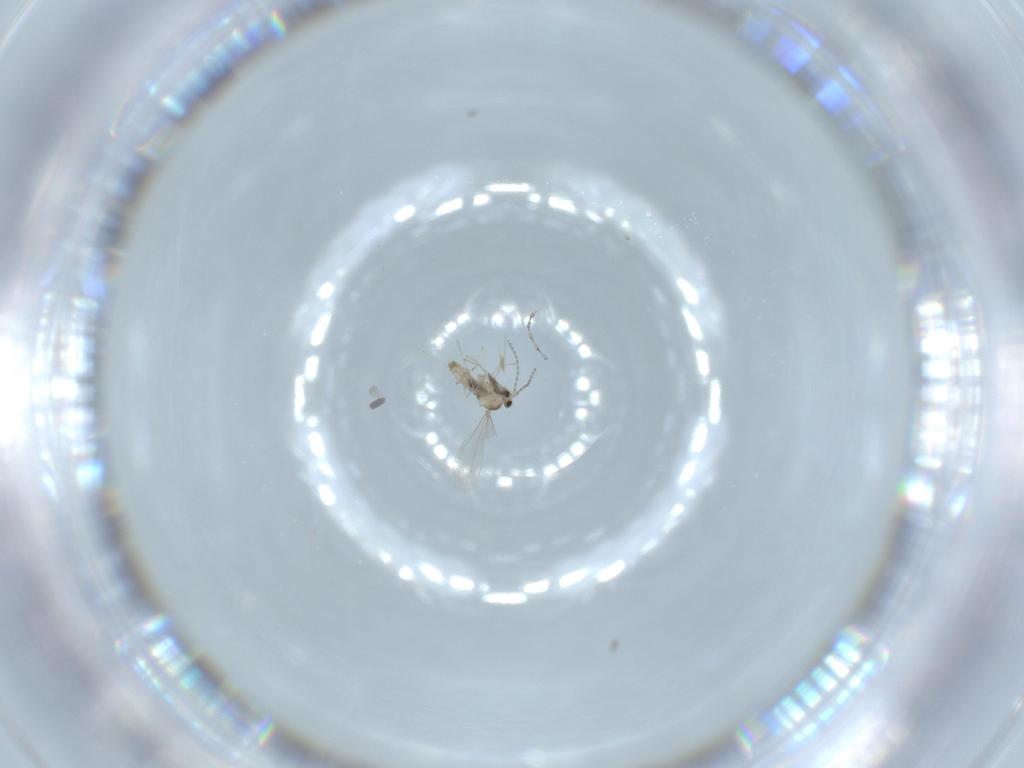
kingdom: Animalia
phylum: Arthropoda
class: Insecta
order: Diptera
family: Cecidomyiidae
